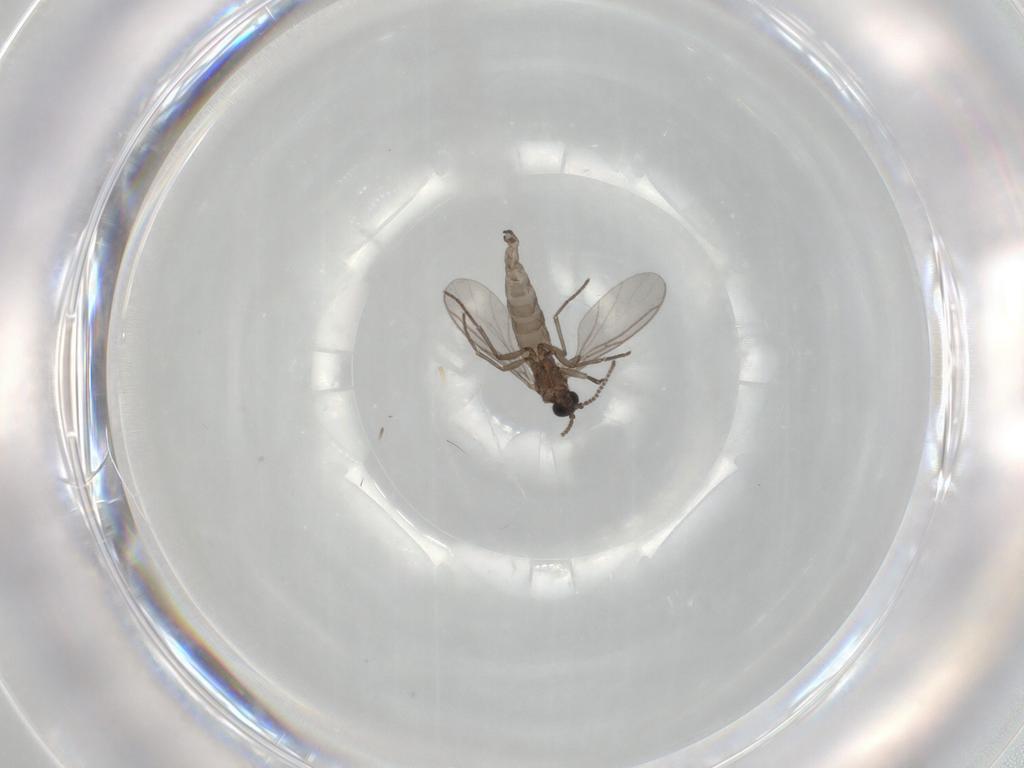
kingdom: Animalia
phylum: Arthropoda
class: Insecta
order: Diptera
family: Sciaridae
